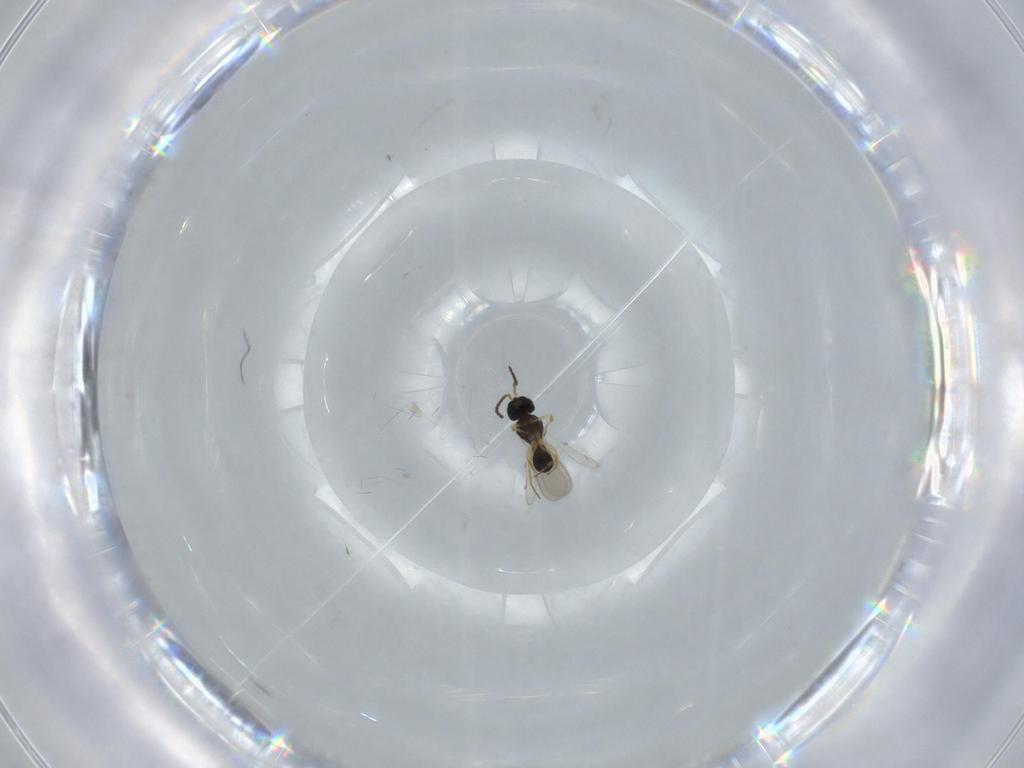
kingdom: Animalia
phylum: Arthropoda
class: Insecta
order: Hymenoptera
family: Scelionidae
